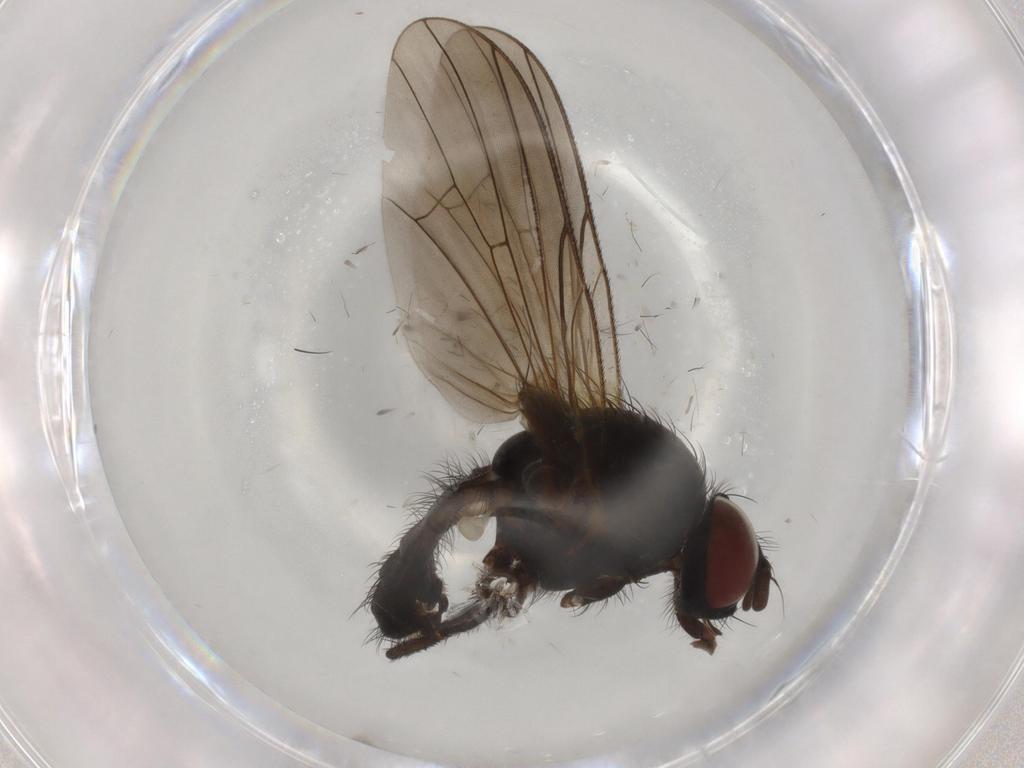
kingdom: Animalia
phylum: Arthropoda
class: Insecta
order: Diptera
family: Anthomyiidae
